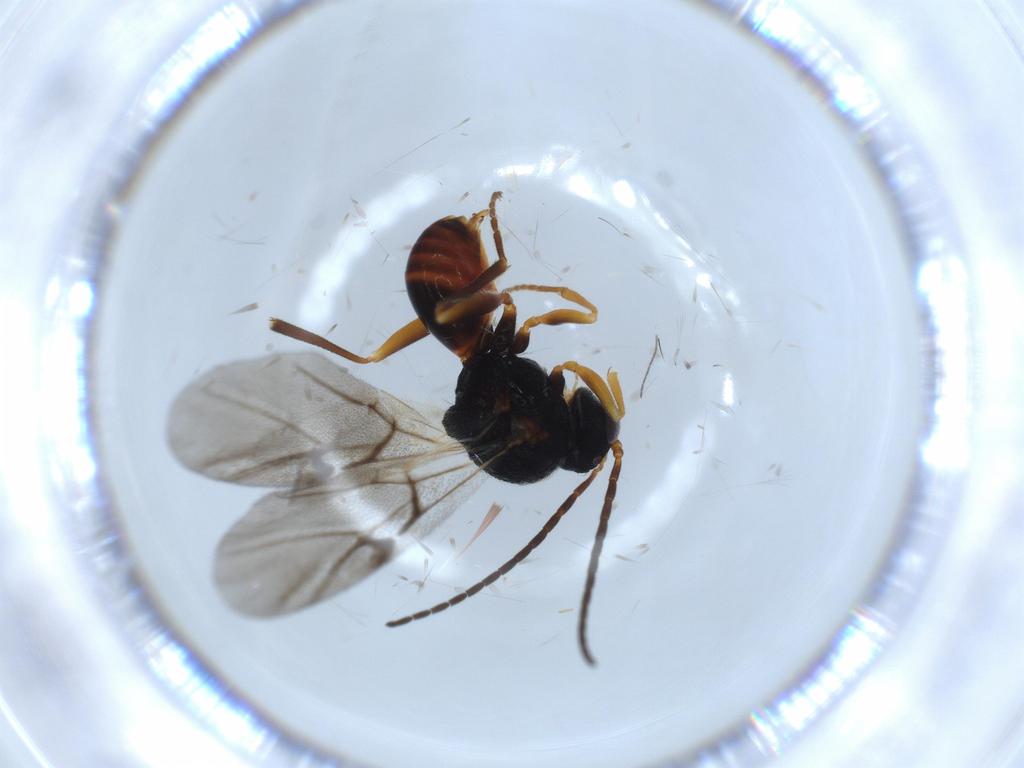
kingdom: Animalia
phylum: Arthropoda
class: Insecta
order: Hymenoptera
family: Cynipidae
